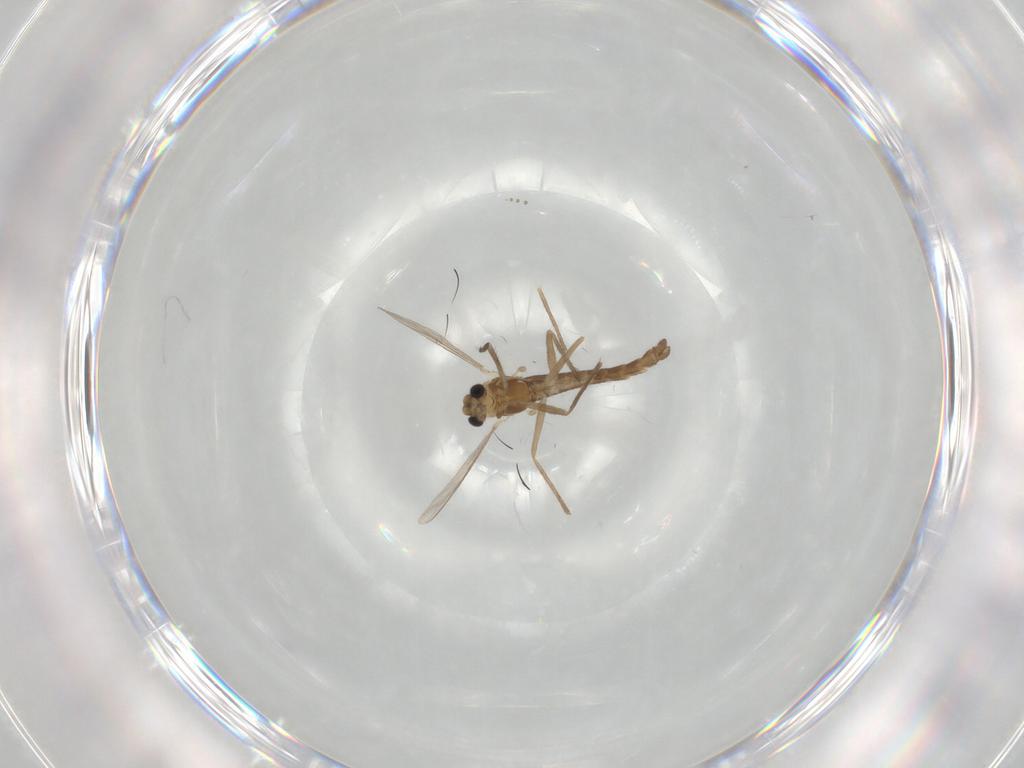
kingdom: Animalia
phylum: Arthropoda
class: Insecta
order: Diptera
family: Chironomidae
